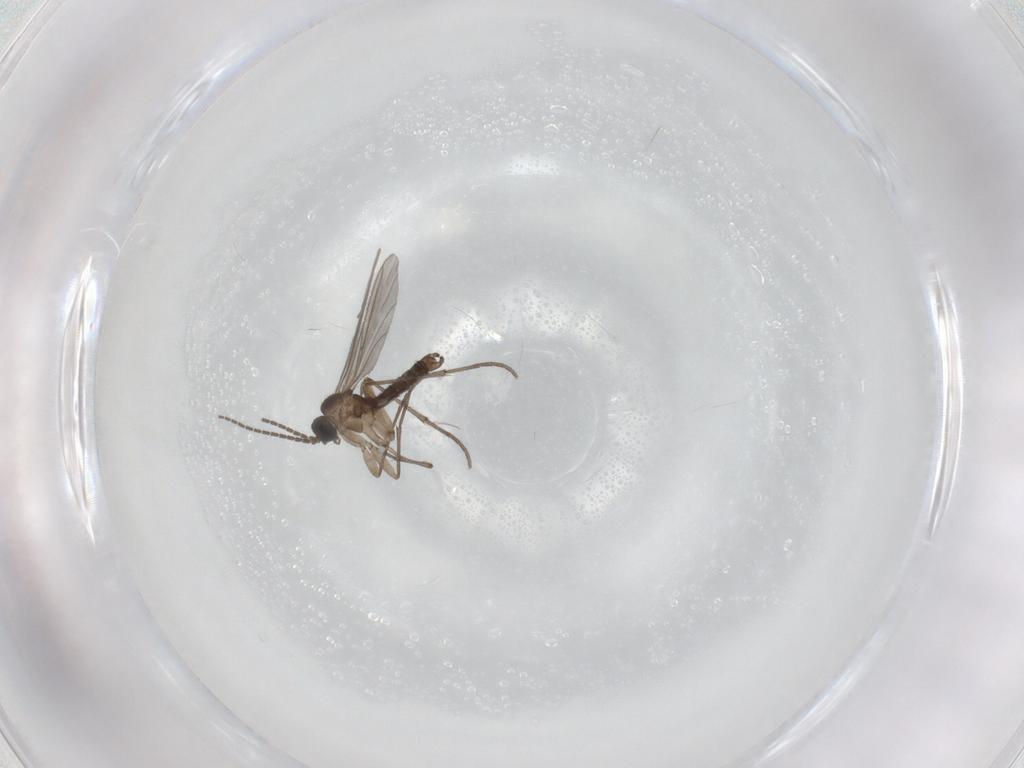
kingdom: Animalia
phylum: Arthropoda
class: Insecta
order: Diptera
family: Sciaridae
